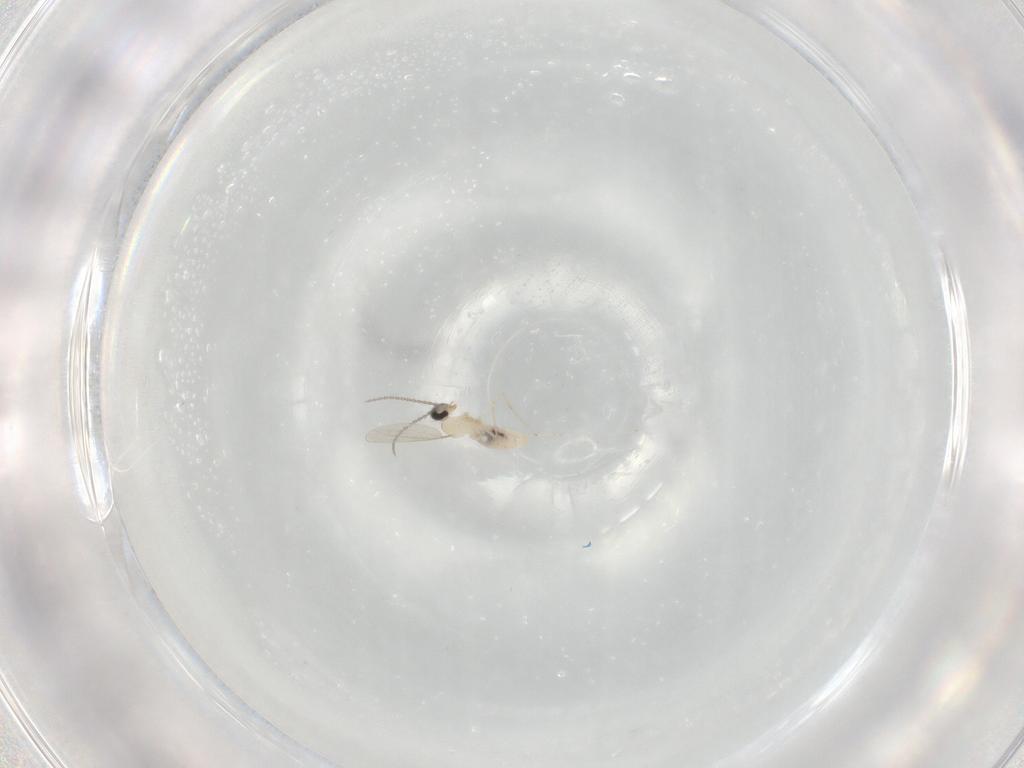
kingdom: Animalia
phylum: Arthropoda
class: Insecta
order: Diptera
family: Cecidomyiidae
